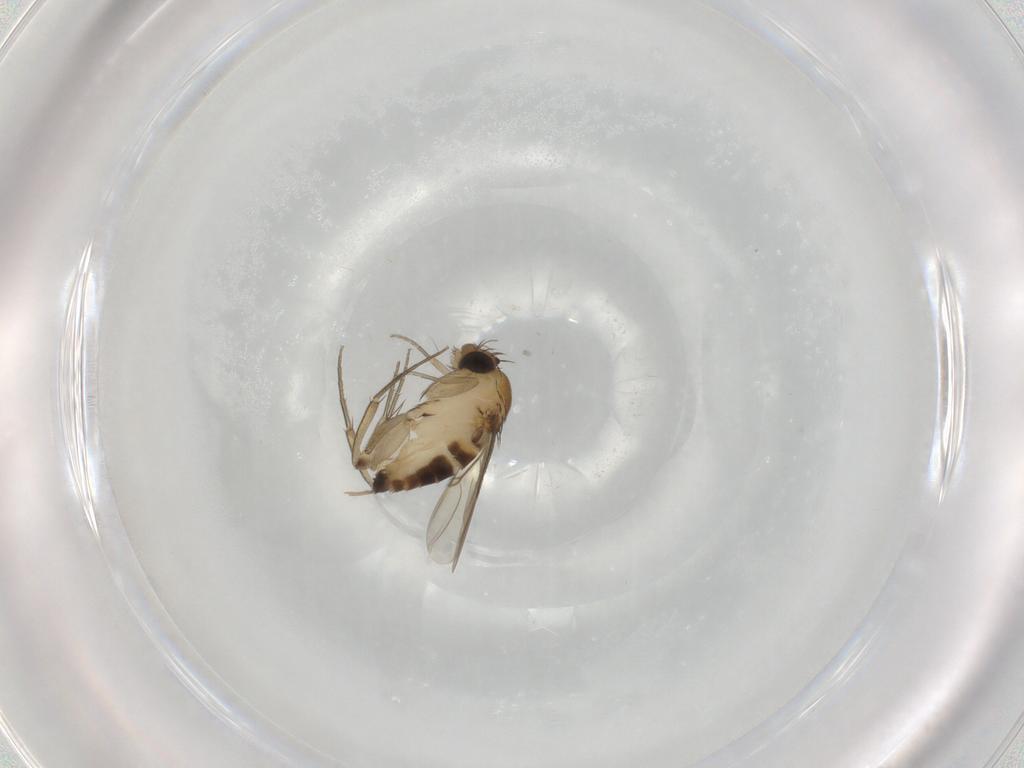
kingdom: Animalia
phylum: Arthropoda
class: Insecta
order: Diptera
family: Phoridae
